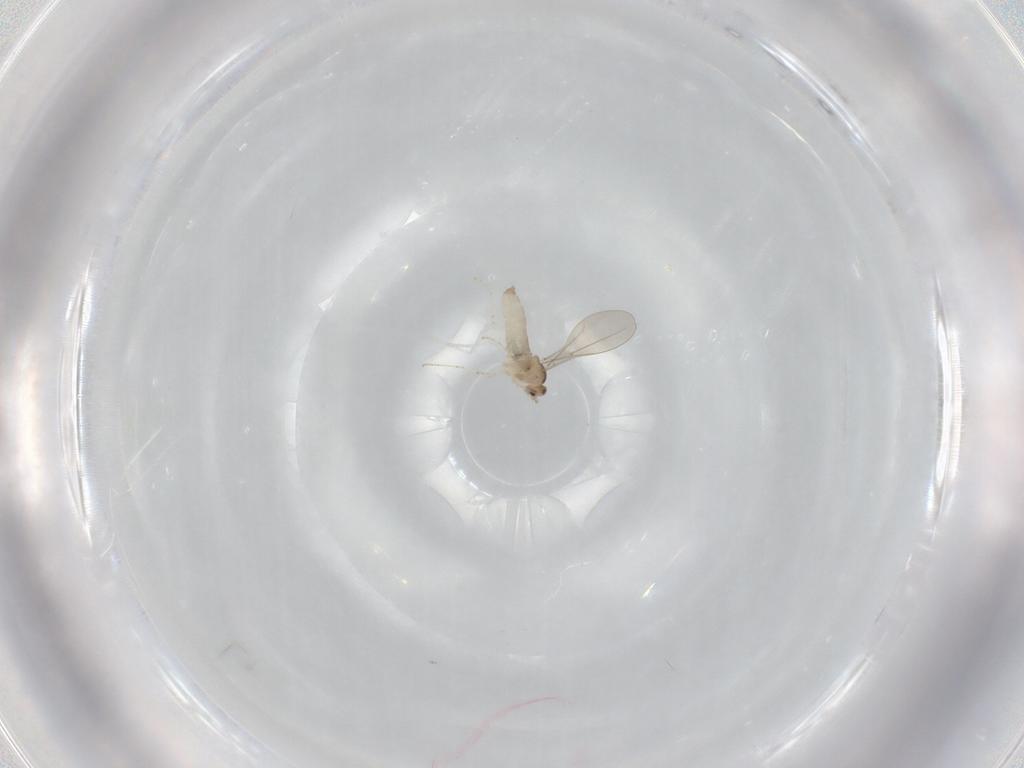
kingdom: Animalia
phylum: Arthropoda
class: Insecta
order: Diptera
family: Cecidomyiidae
